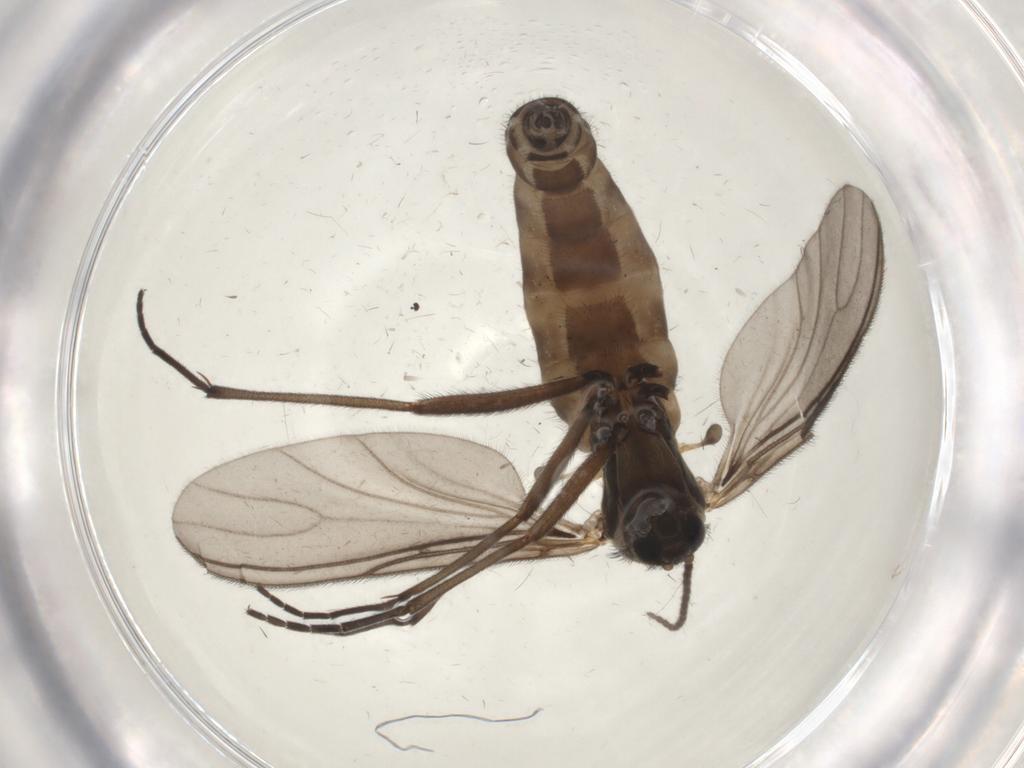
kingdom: Animalia
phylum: Arthropoda
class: Insecta
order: Diptera
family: Sciaridae
